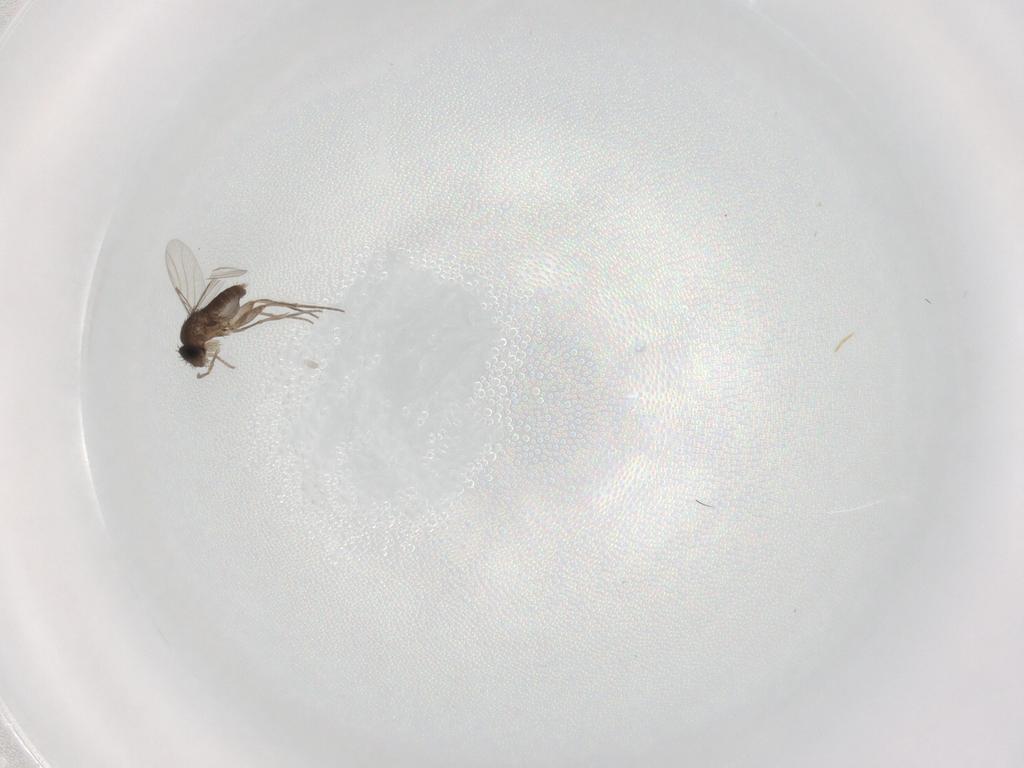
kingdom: Animalia
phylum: Arthropoda
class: Insecta
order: Diptera
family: Phoridae
